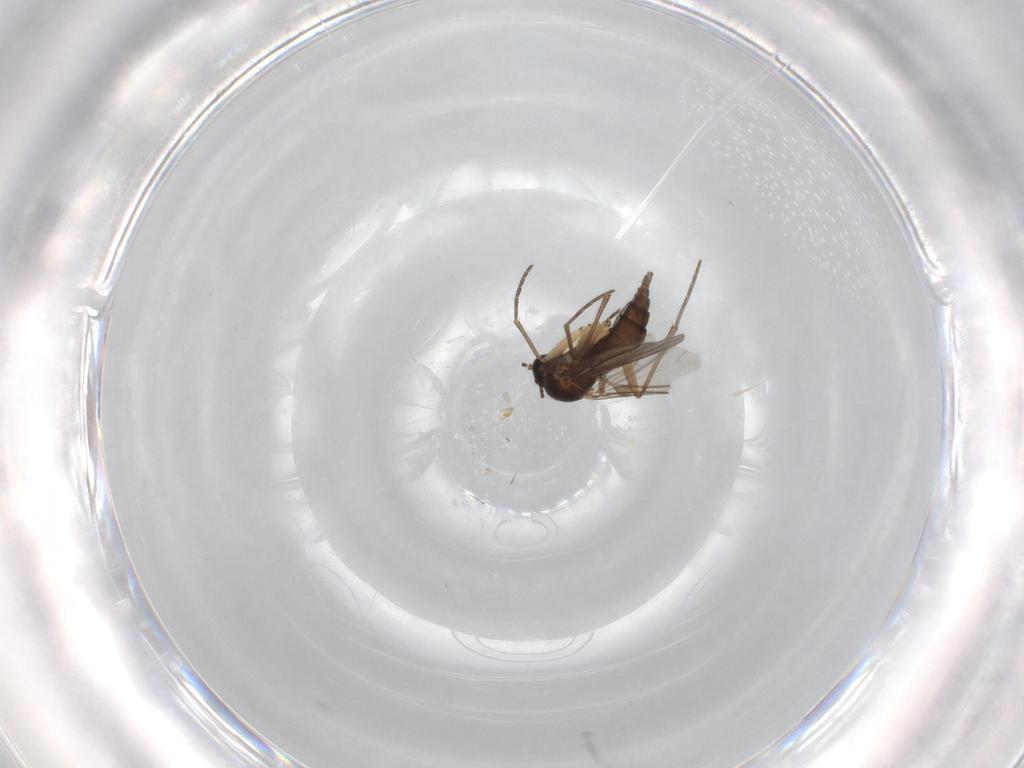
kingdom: Animalia
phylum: Arthropoda
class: Insecta
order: Diptera
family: Sciaridae
